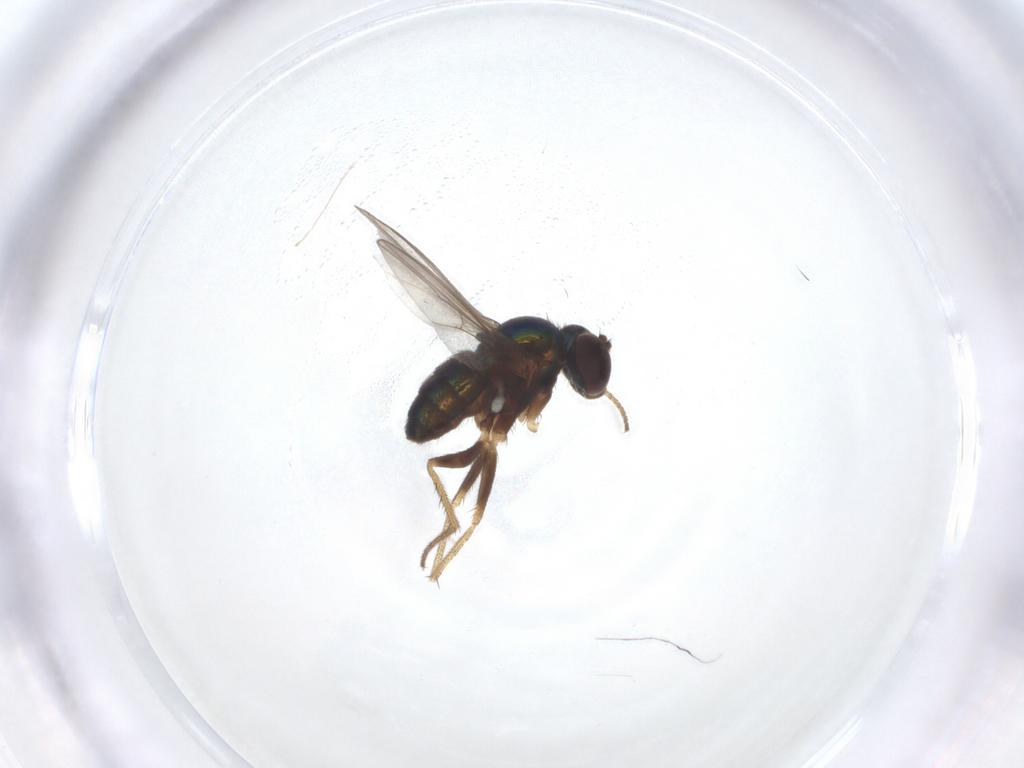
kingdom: Animalia
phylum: Arthropoda
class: Insecta
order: Diptera
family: Cecidomyiidae
